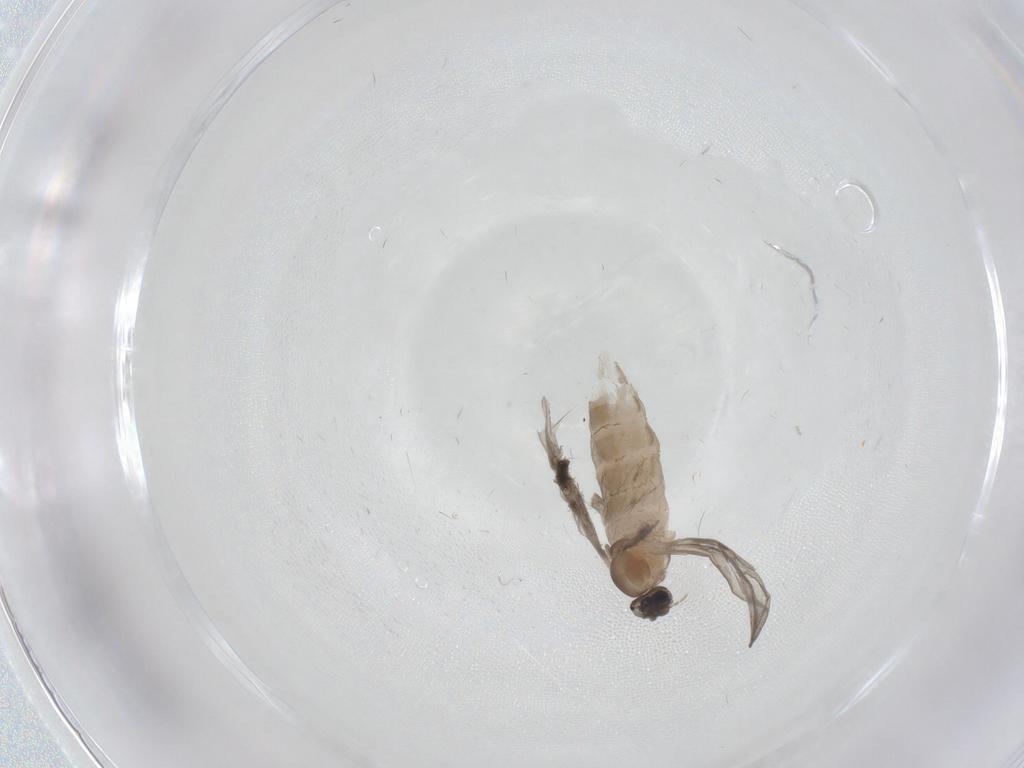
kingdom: Animalia
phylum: Arthropoda
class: Insecta
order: Diptera
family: Cecidomyiidae
